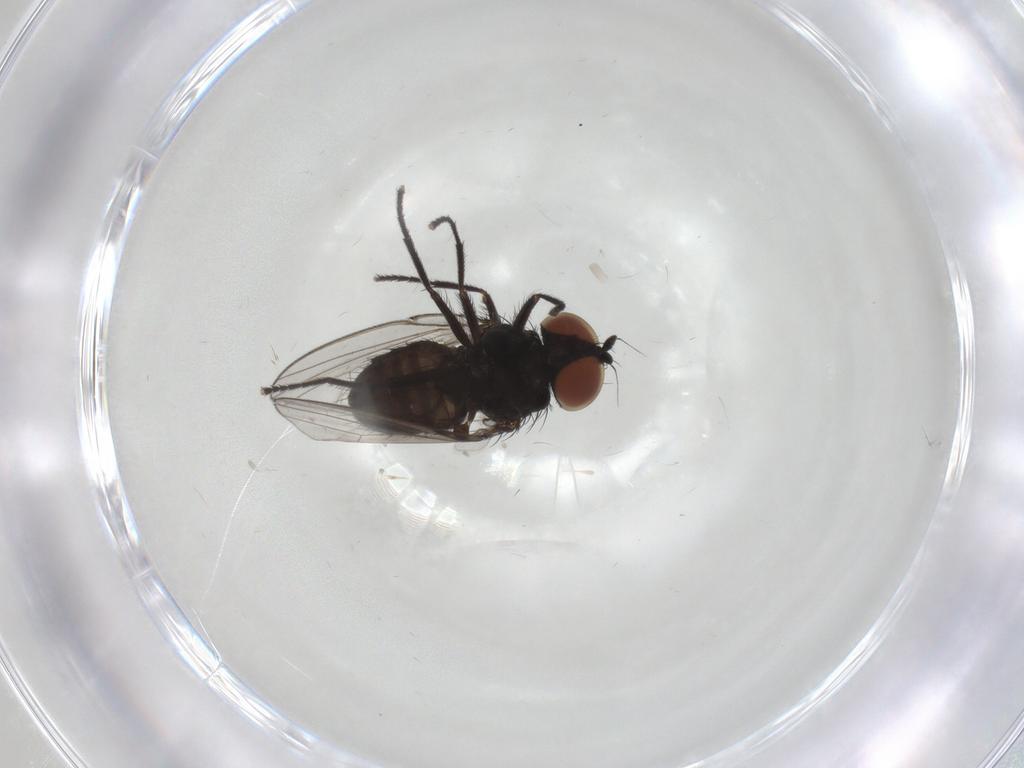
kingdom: Animalia
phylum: Arthropoda
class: Insecta
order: Diptera
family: Milichiidae
